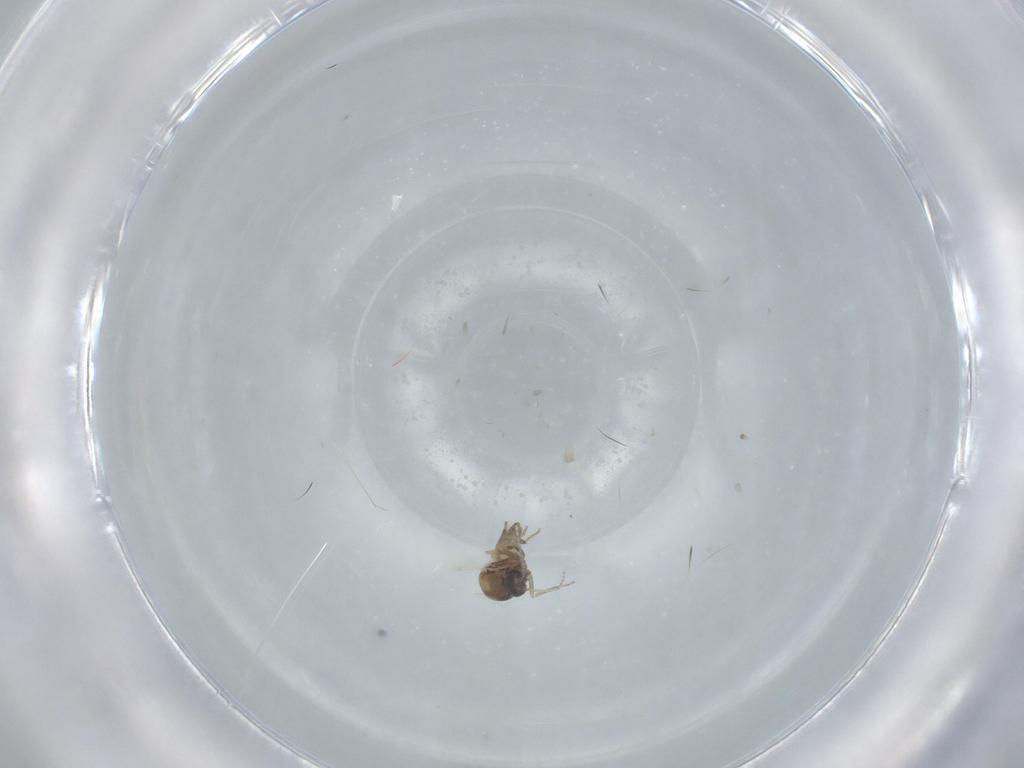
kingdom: Animalia
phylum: Arthropoda
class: Insecta
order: Diptera
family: Ceratopogonidae
